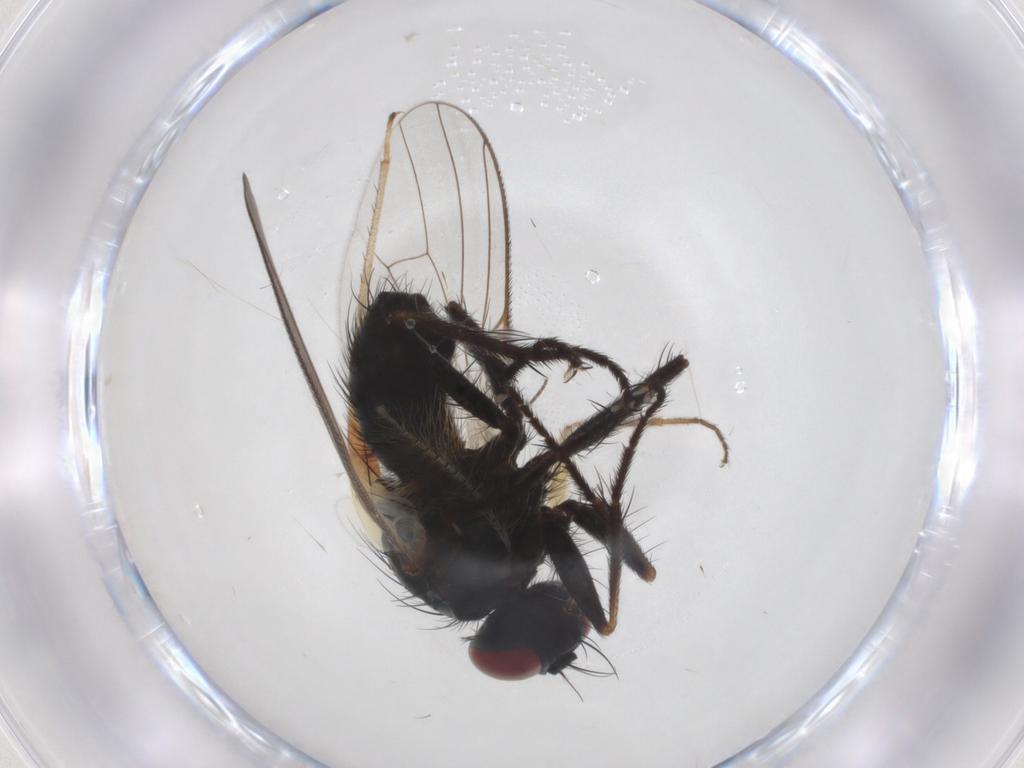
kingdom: Animalia
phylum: Arthropoda
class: Insecta
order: Diptera
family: Hybotidae
